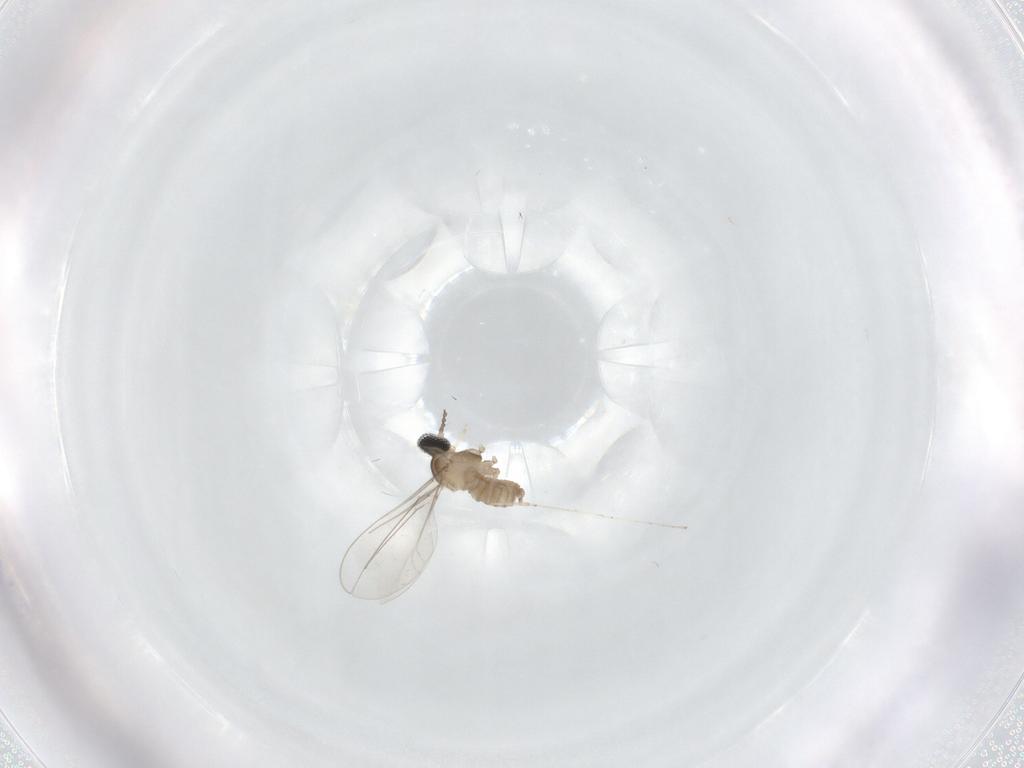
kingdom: Animalia
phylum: Arthropoda
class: Insecta
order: Diptera
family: Cecidomyiidae
